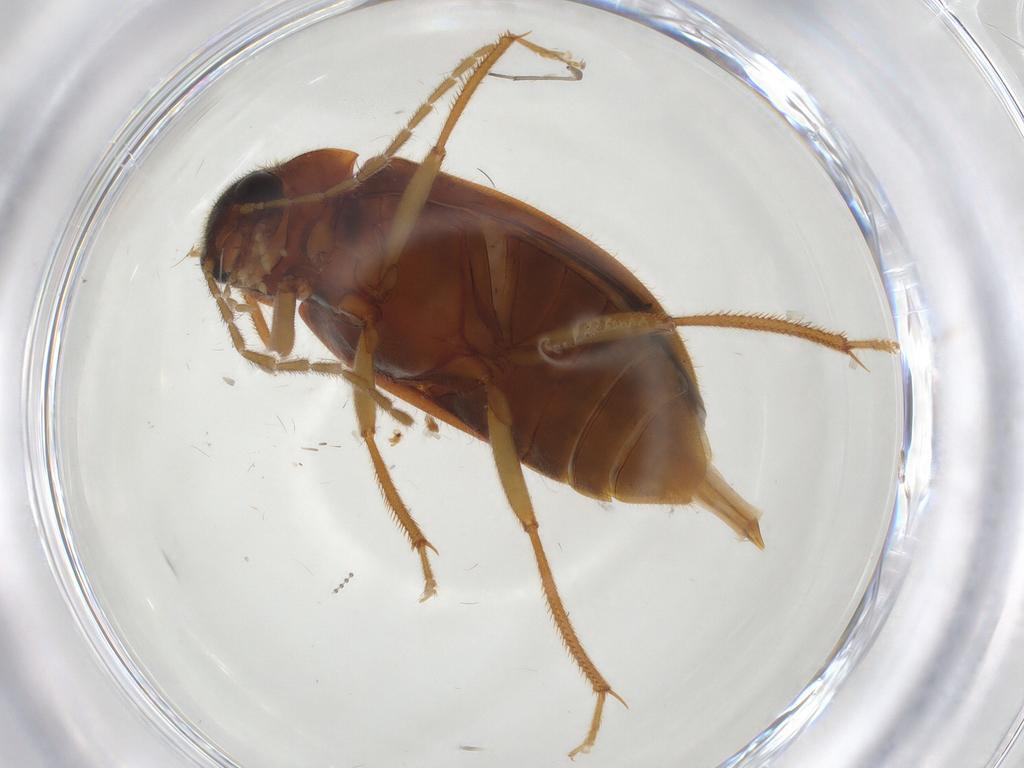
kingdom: Animalia
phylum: Arthropoda
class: Insecta
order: Coleoptera
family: Ptilodactylidae
